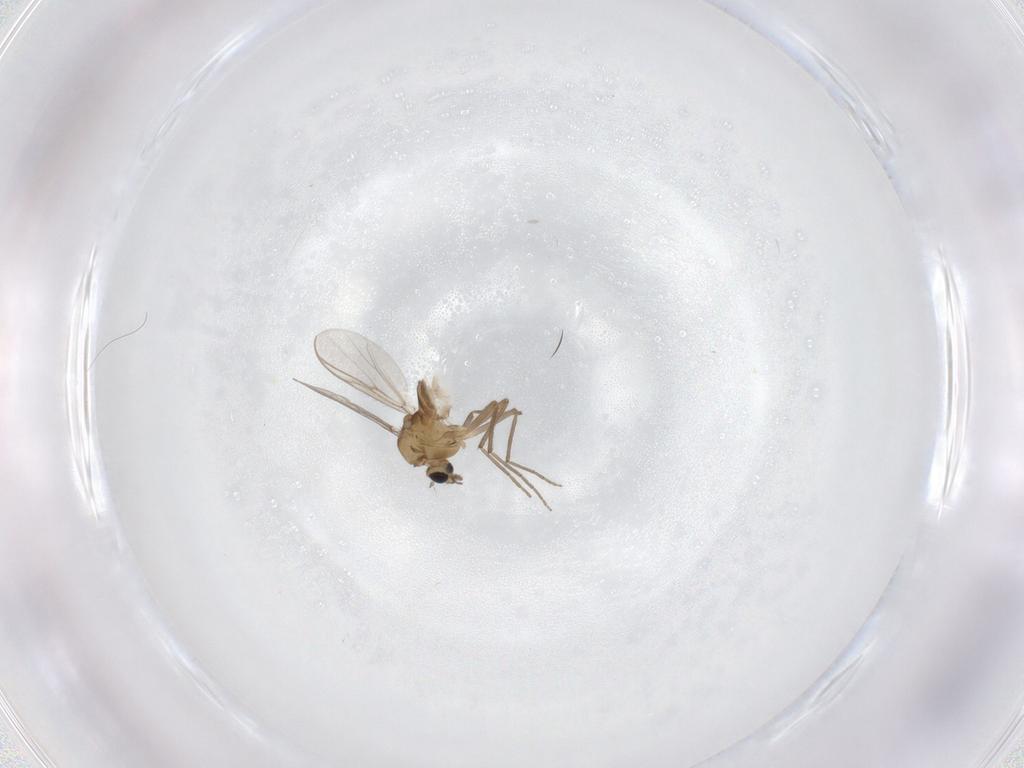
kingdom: Animalia
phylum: Arthropoda
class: Insecta
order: Diptera
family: Chironomidae
